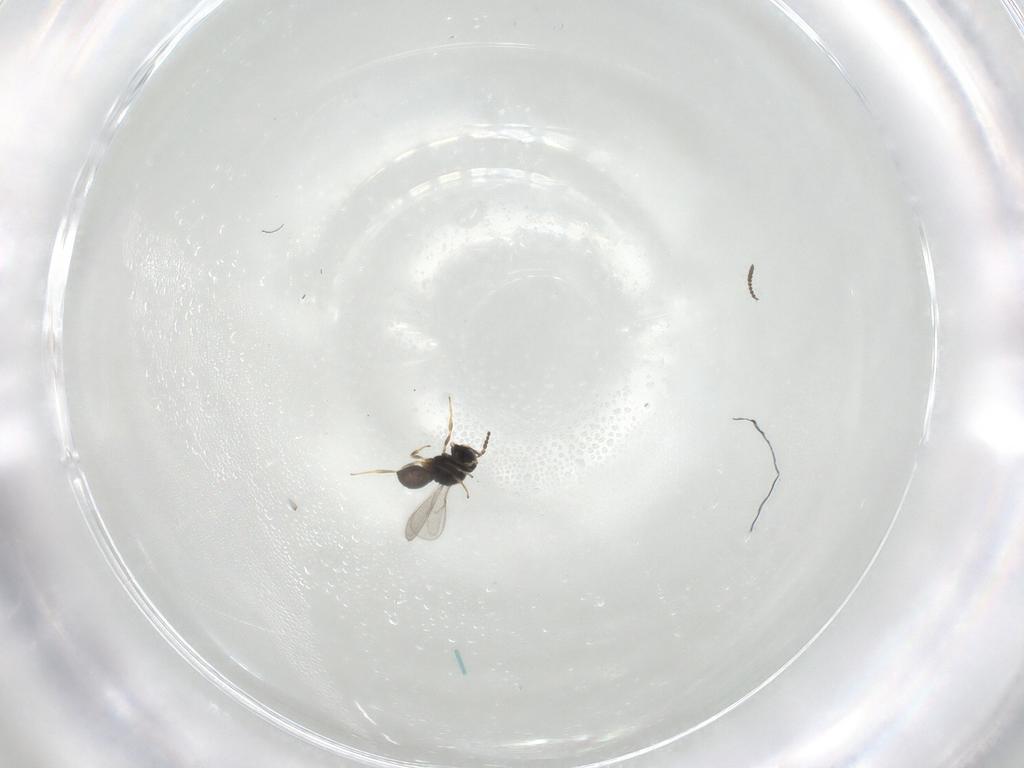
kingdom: Animalia
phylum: Arthropoda
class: Insecta
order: Hymenoptera
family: Scelionidae
